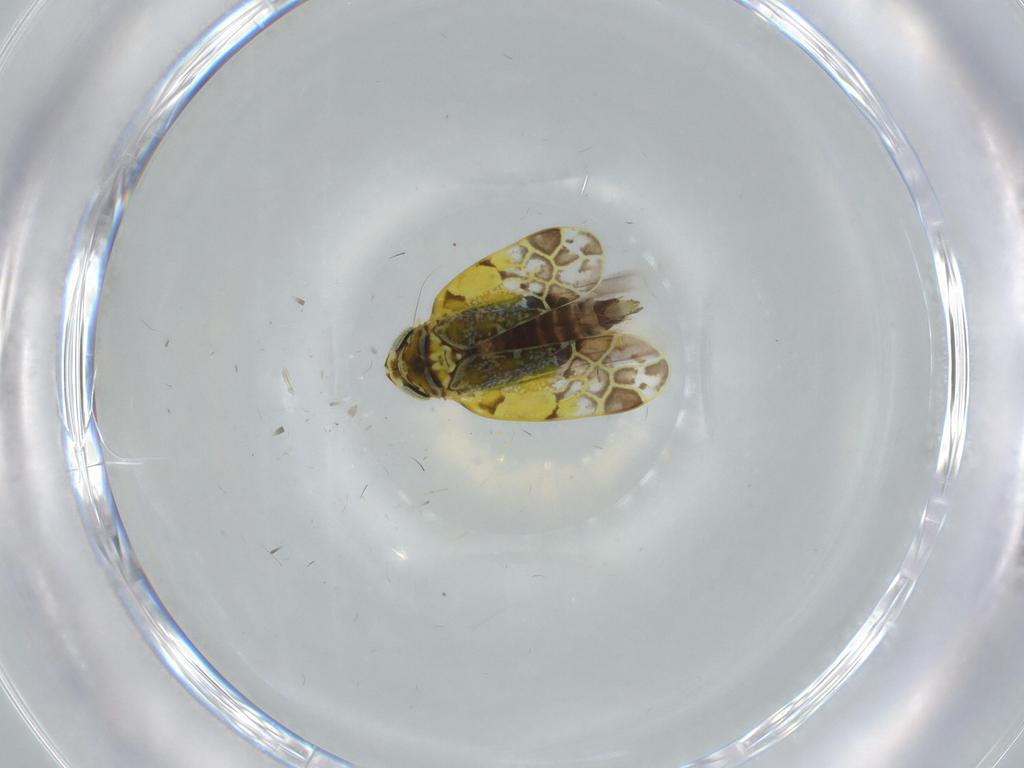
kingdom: Animalia
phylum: Arthropoda
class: Insecta
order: Hemiptera
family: Cicadellidae
